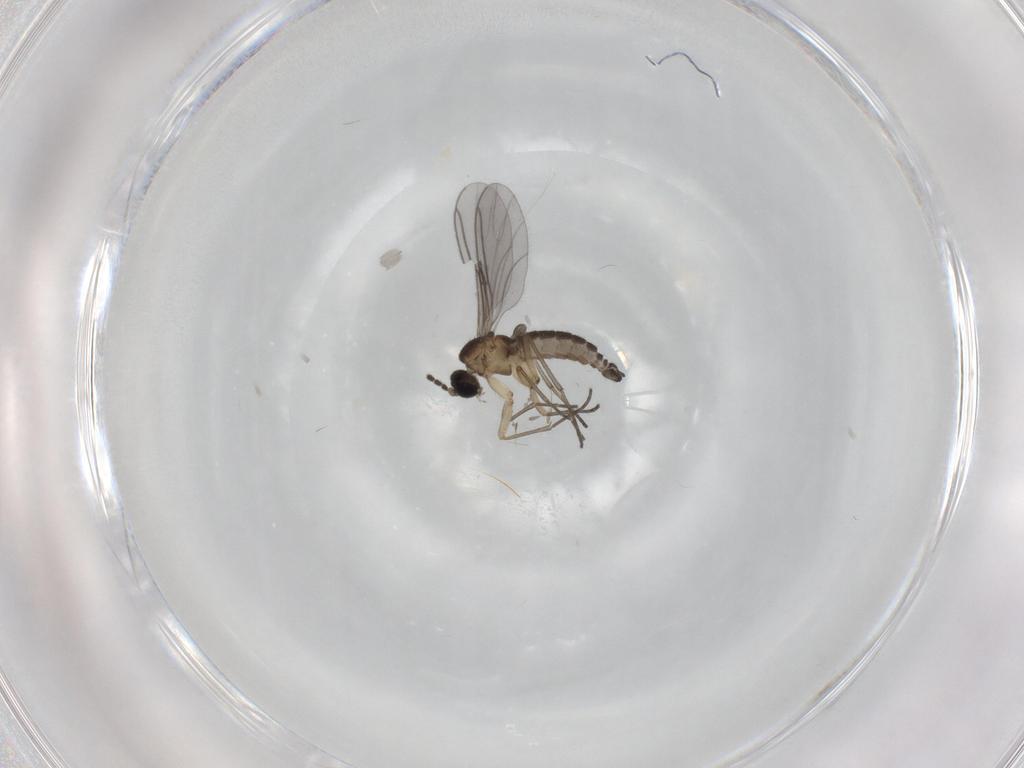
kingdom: Animalia
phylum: Arthropoda
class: Insecta
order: Diptera
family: Sciaridae
